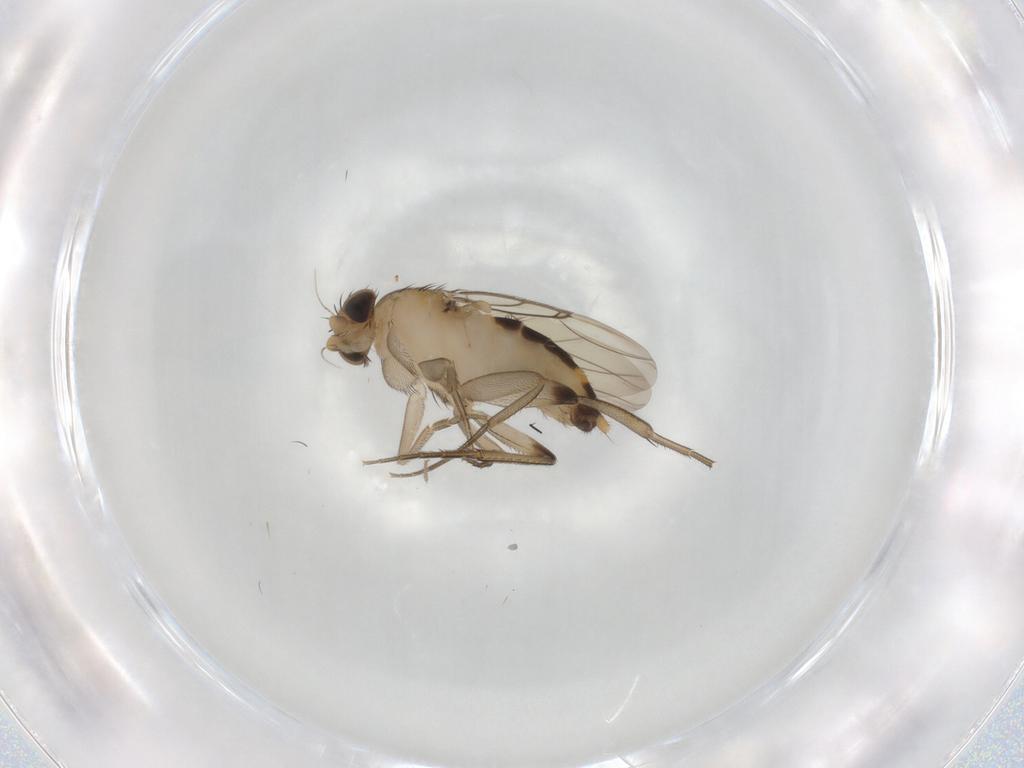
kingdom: Animalia
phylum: Arthropoda
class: Insecta
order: Diptera
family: Phoridae
